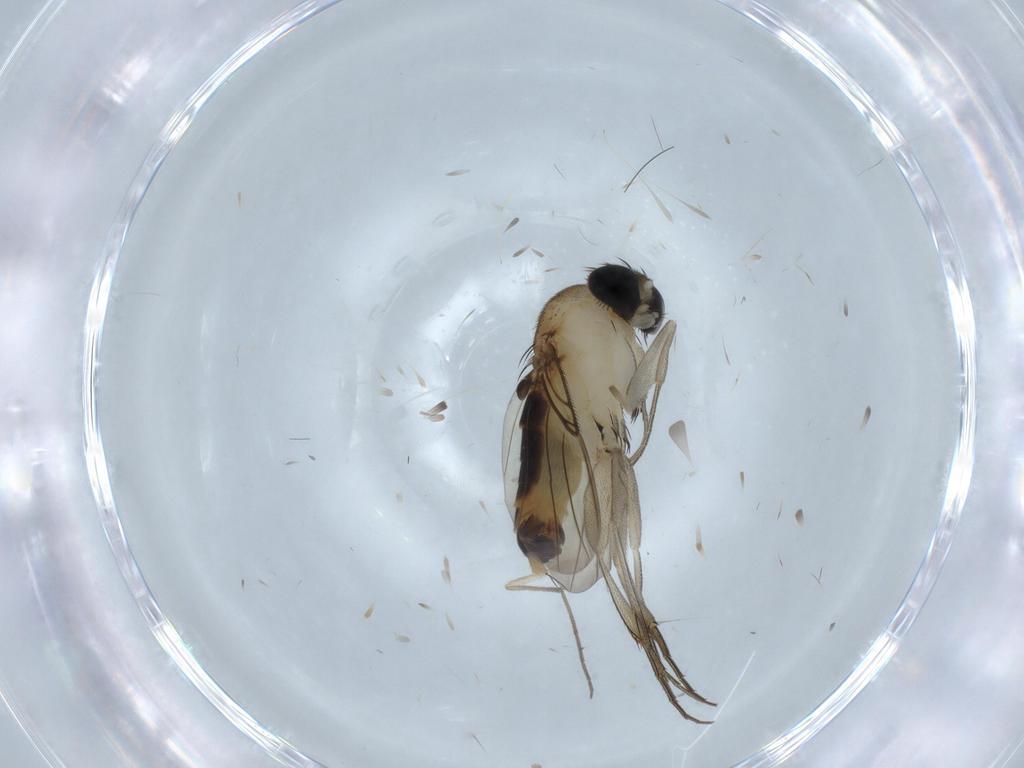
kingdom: Animalia
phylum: Arthropoda
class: Insecta
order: Diptera
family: Phoridae
